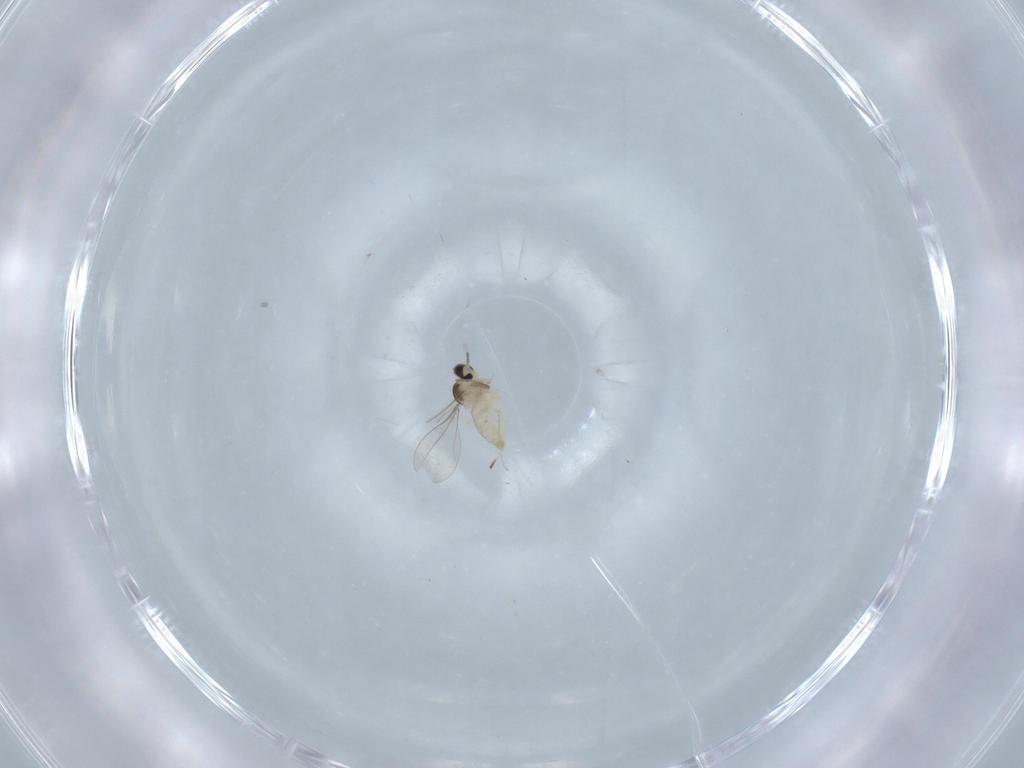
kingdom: Animalia
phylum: Arthropoda
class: Insecta
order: Diptera
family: Cecidomyiidae
